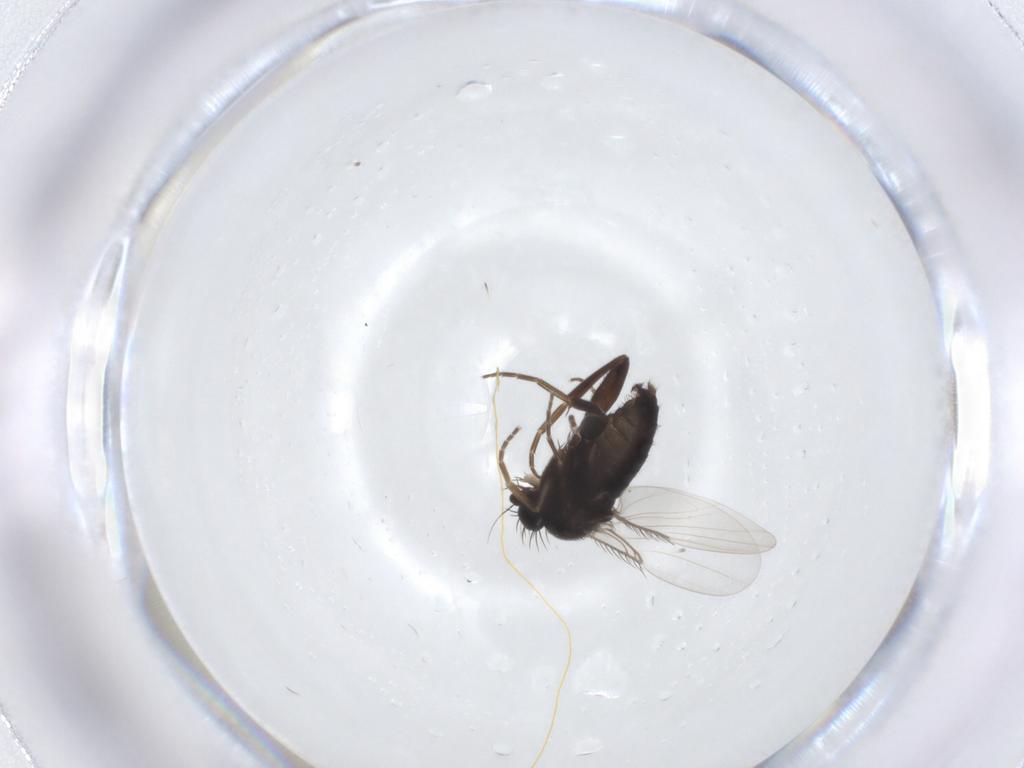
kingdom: Animalia
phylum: Arthropoda
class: Insecta
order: Diptera
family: Phoridae
